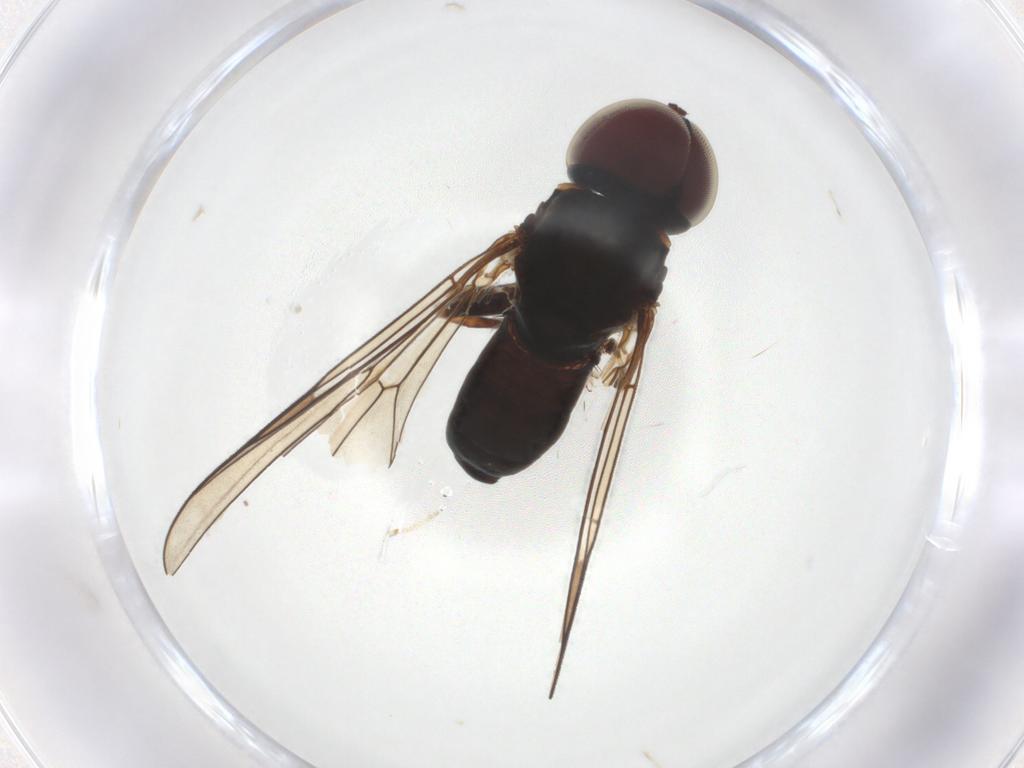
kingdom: Animalia
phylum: Arthropoda
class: Insecta
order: Diptera
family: Pipunculidae
